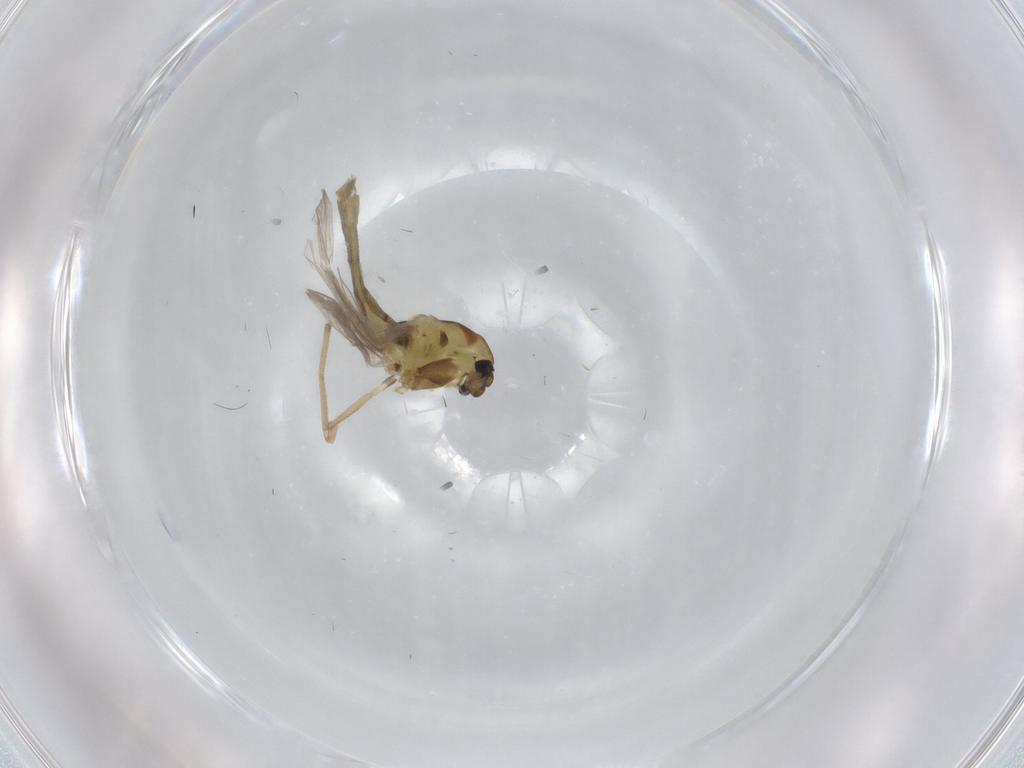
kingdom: Animalia
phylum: Arthropoda
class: Insecta
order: Diptera
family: Chironomidae
